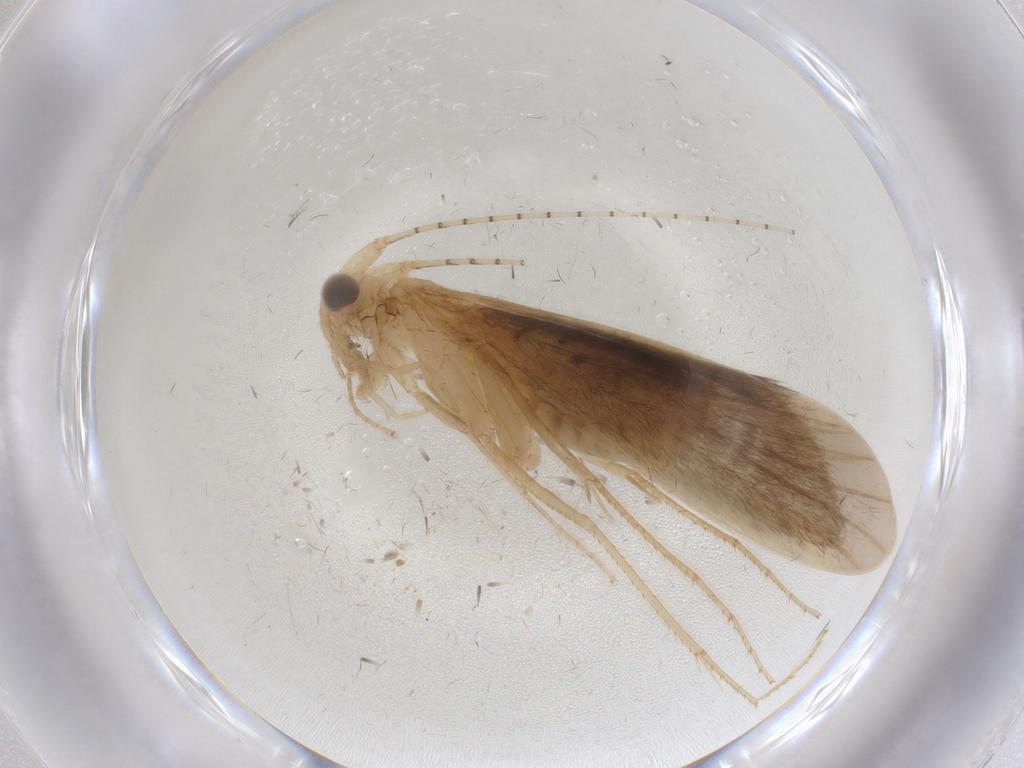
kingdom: Animalia
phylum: Arthropoda
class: Insecta
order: Trichoptera
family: Leptoceridae
